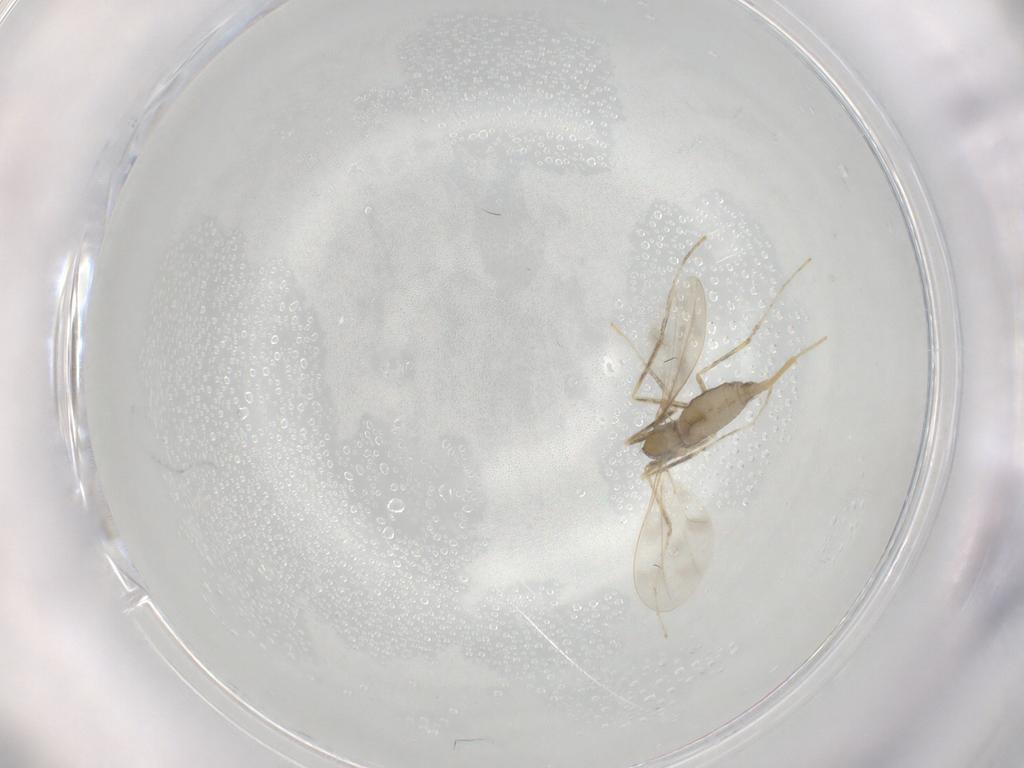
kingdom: Animalia
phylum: Arthropoda
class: Insecta
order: Diptera
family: Cecidomyiidae
